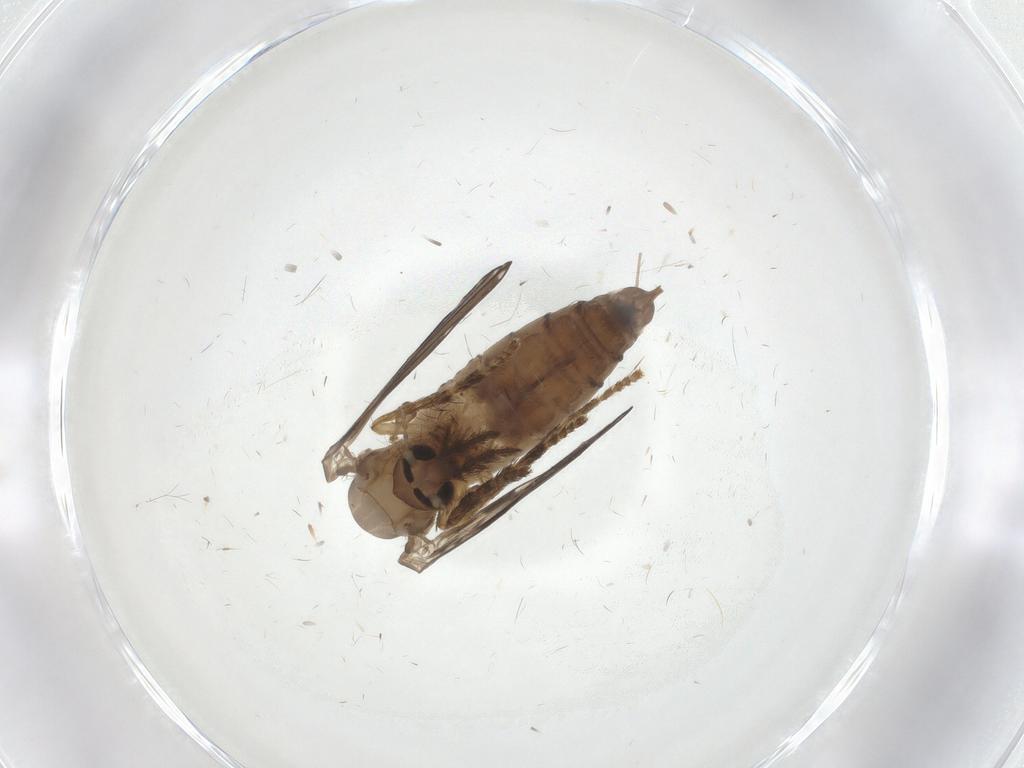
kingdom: Animalia
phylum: Arthropoda
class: Insecta
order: Diptera
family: Psychodidae
